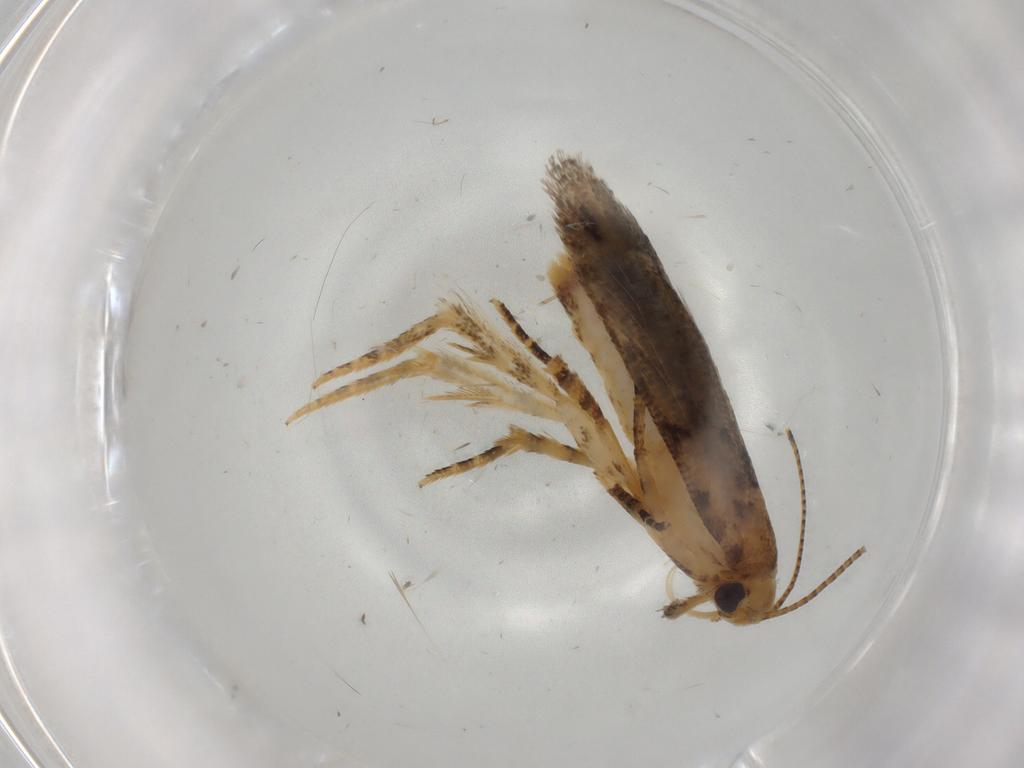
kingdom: Animalia
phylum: Arthropoda
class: Insecta
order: Lepidoptera
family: Gelechiidae
